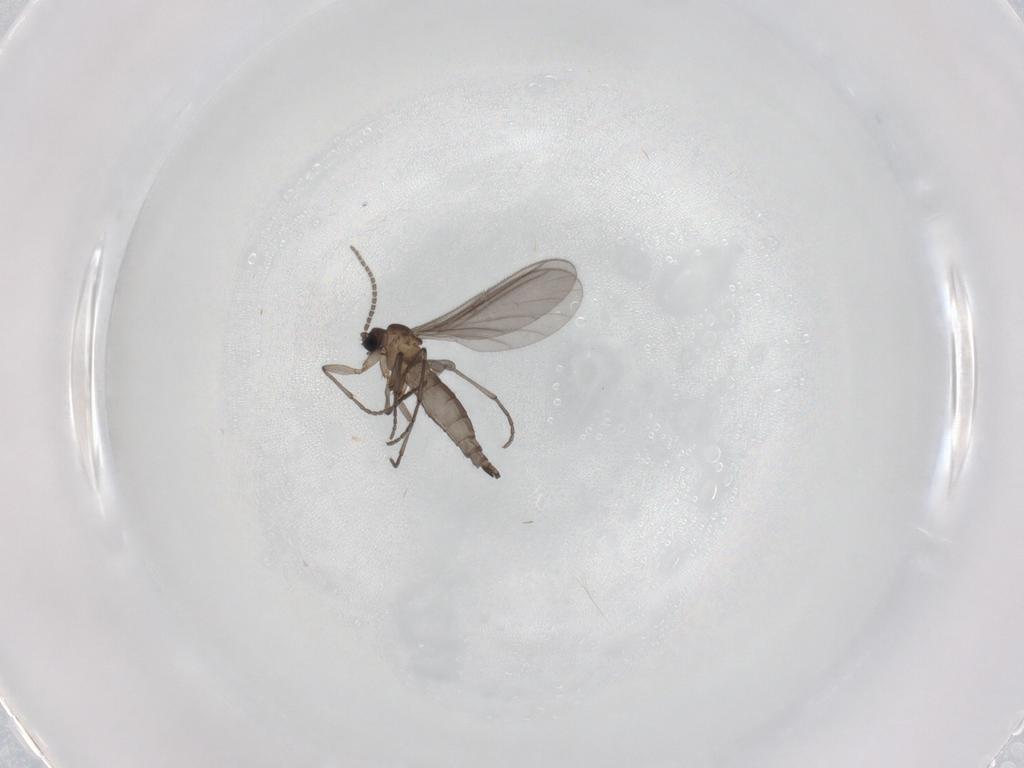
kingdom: Animalia
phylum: Arthropoda
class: Insecta
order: Diptera
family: Sciaridae
